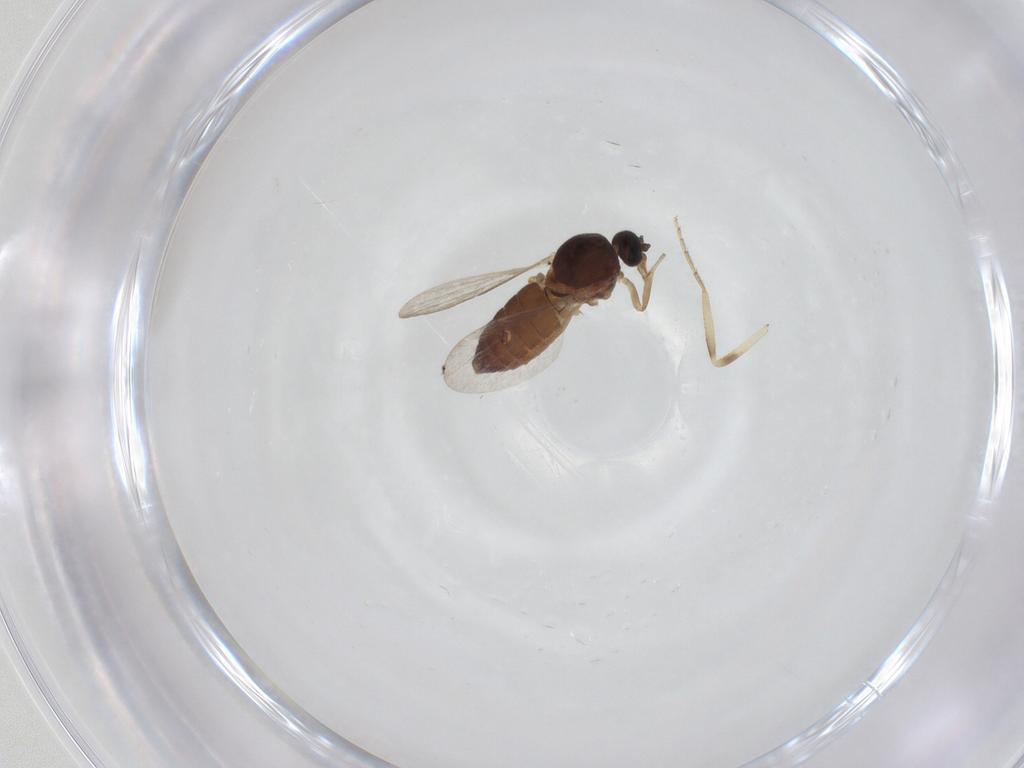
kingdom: Animalia
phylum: Arthropoda
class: Insecta
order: Diptera
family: Ceratopogonidae
